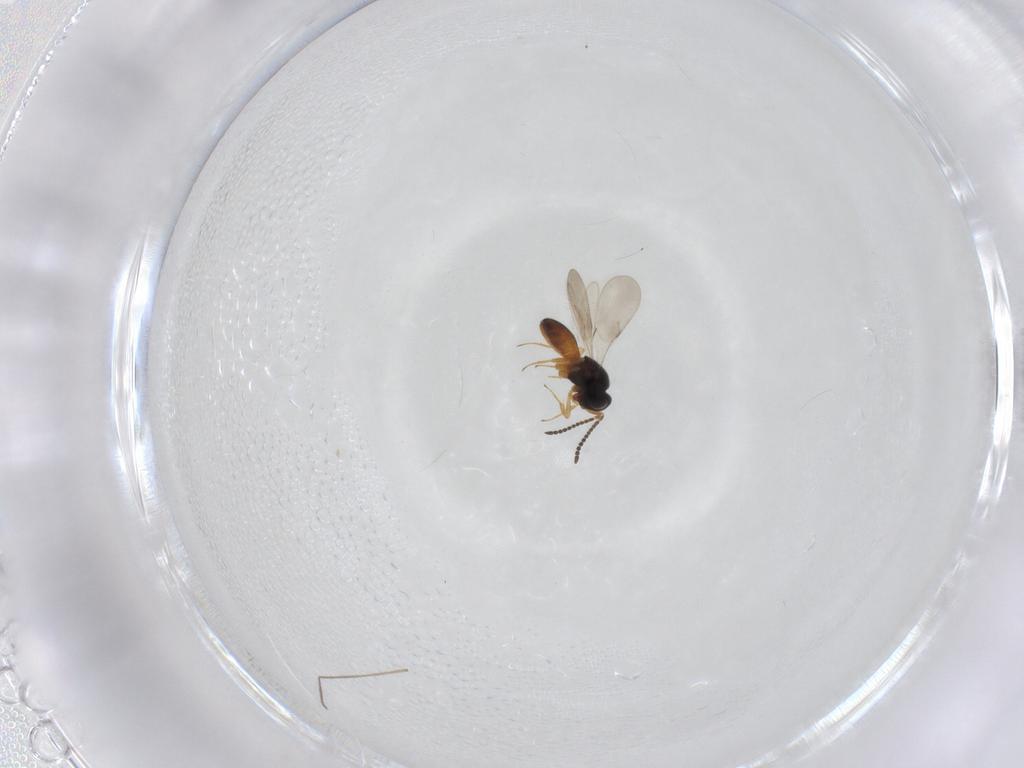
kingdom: Animalia
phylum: Arthropoda
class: Insecta
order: Hymenoptera
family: Scelionidae
